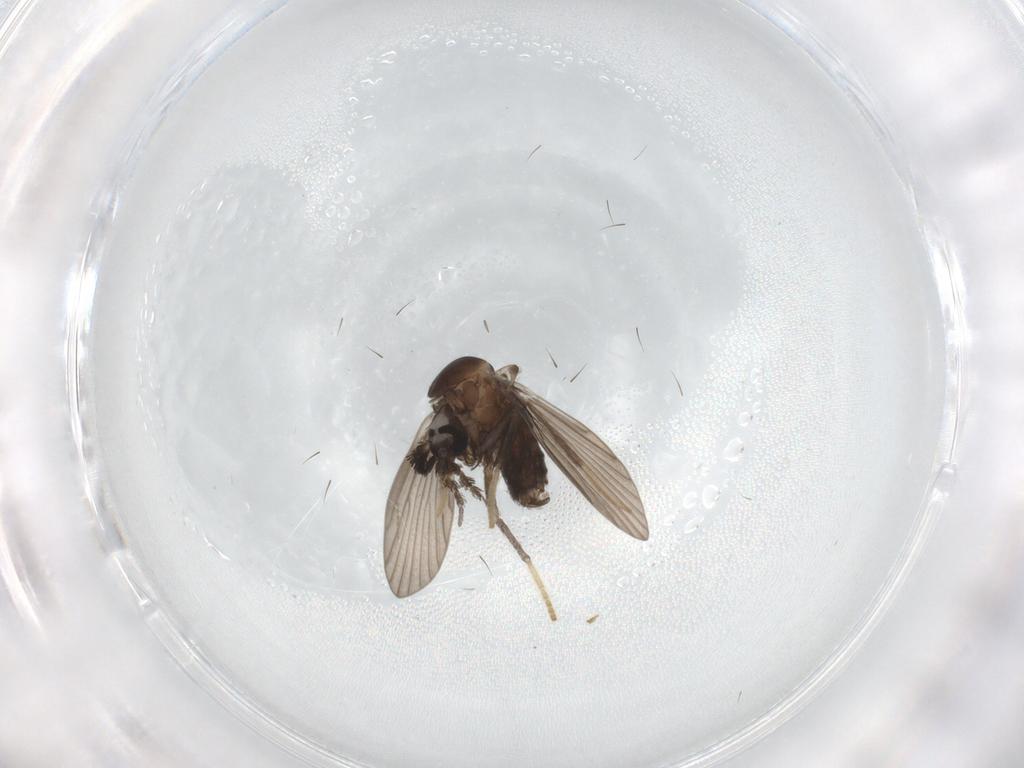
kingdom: Animalia
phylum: Arthropoda
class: Insecta
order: Diptera
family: Psychodidae
